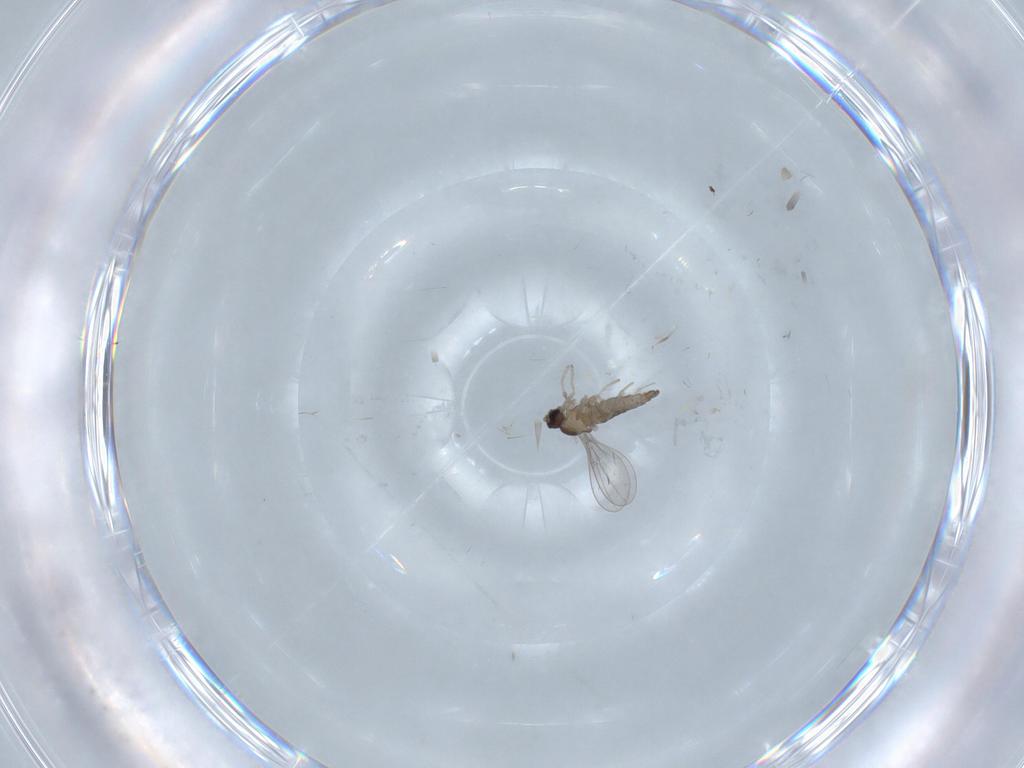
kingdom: Animalia
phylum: Arthropoda
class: Insecta
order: Diptera
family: Cecidomyiidae
